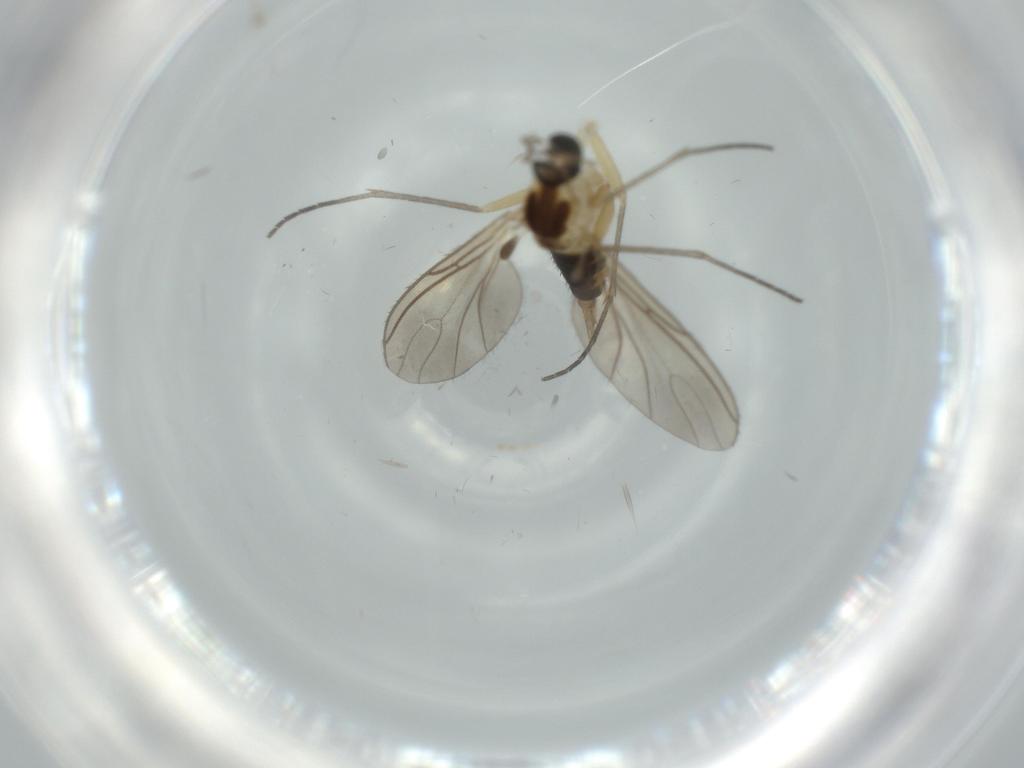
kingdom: Animalia
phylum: Arthropoda
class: Insecta
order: Diptera
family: Sciaridae
